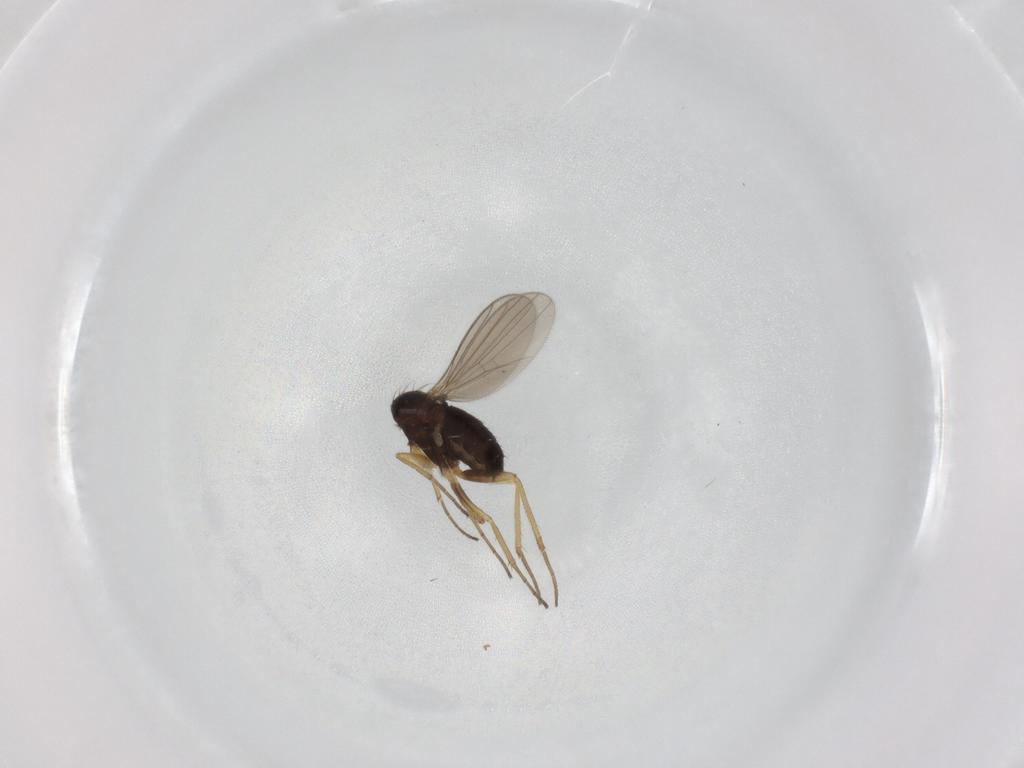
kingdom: Animalia
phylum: Arthropoda
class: Insecta
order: Diptera
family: Dolichopodidae
